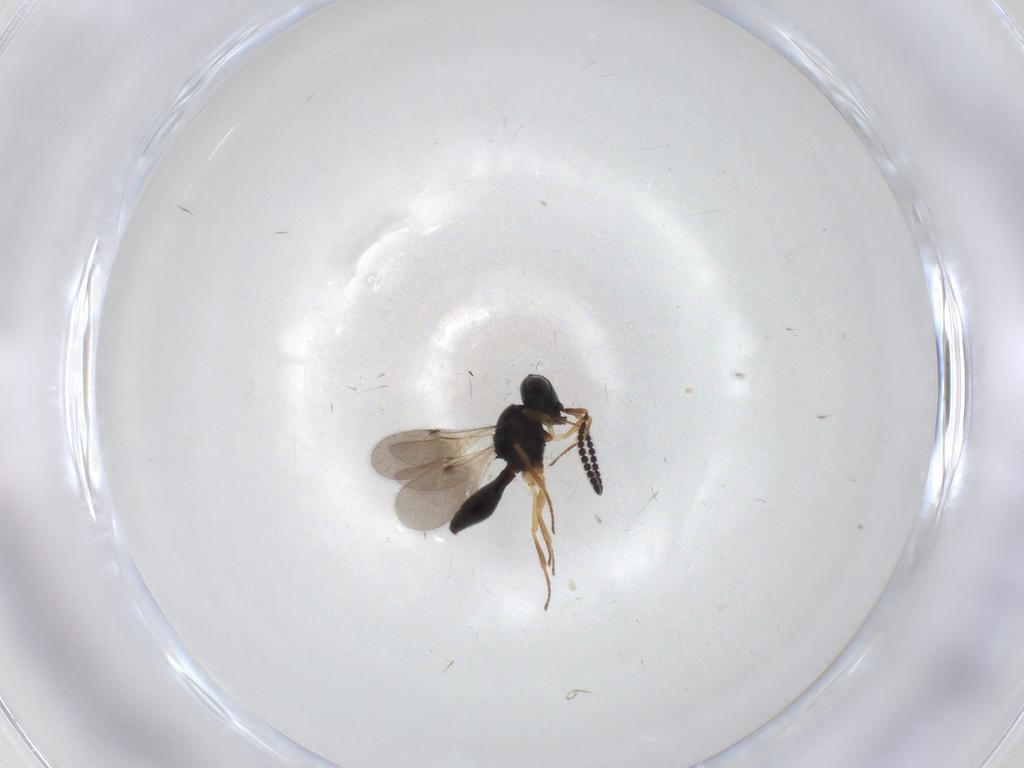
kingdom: Animalia
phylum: Arthropoda
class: Insecta
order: Hymenoptera
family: Scelionidae
